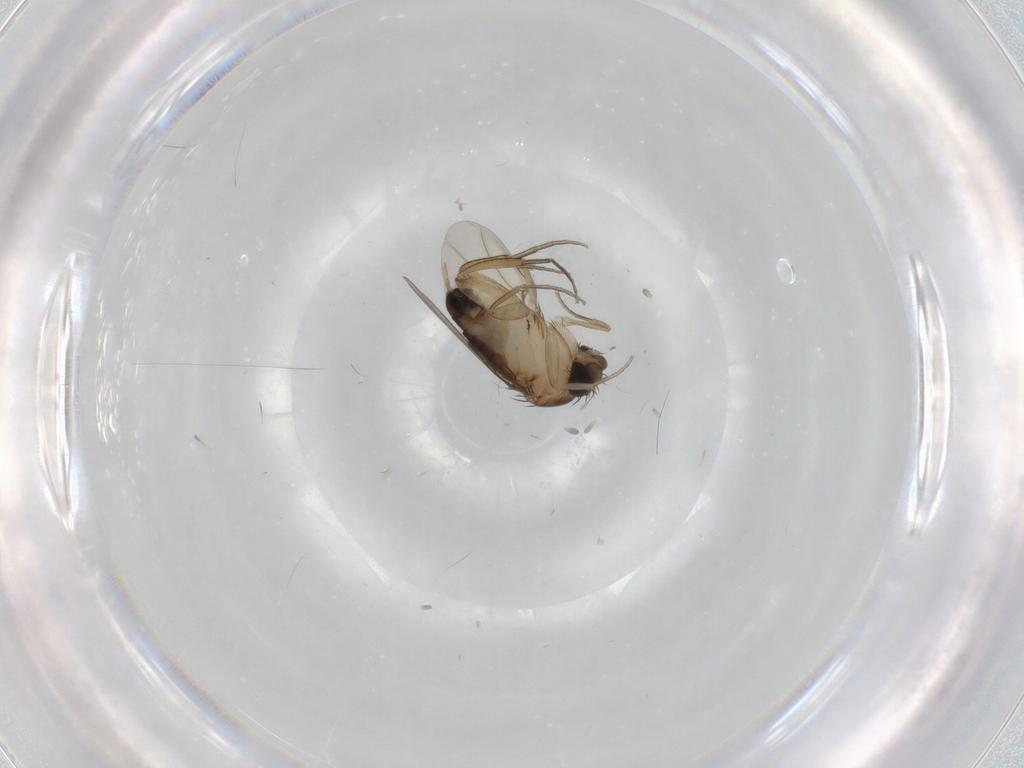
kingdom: Animalia
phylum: Arthropoda
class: Insecta
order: Diptera
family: Phoridae
